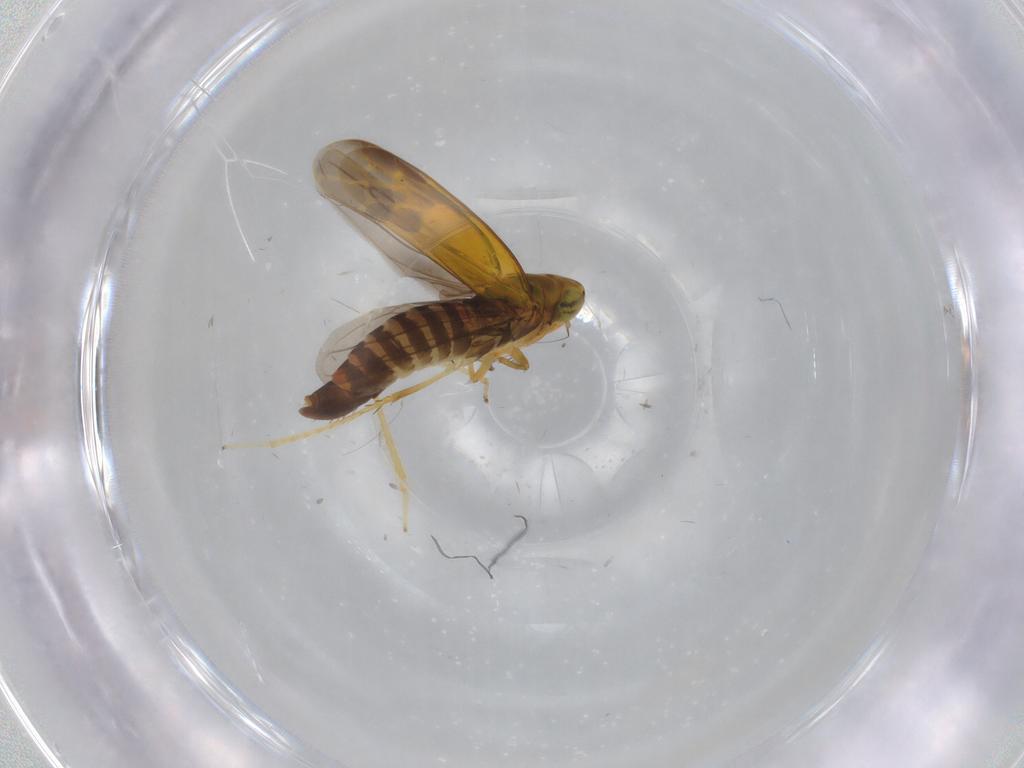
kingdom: Animalia
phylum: Arthropoda
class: Insecta
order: Hemiptera
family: Cicadellidae
